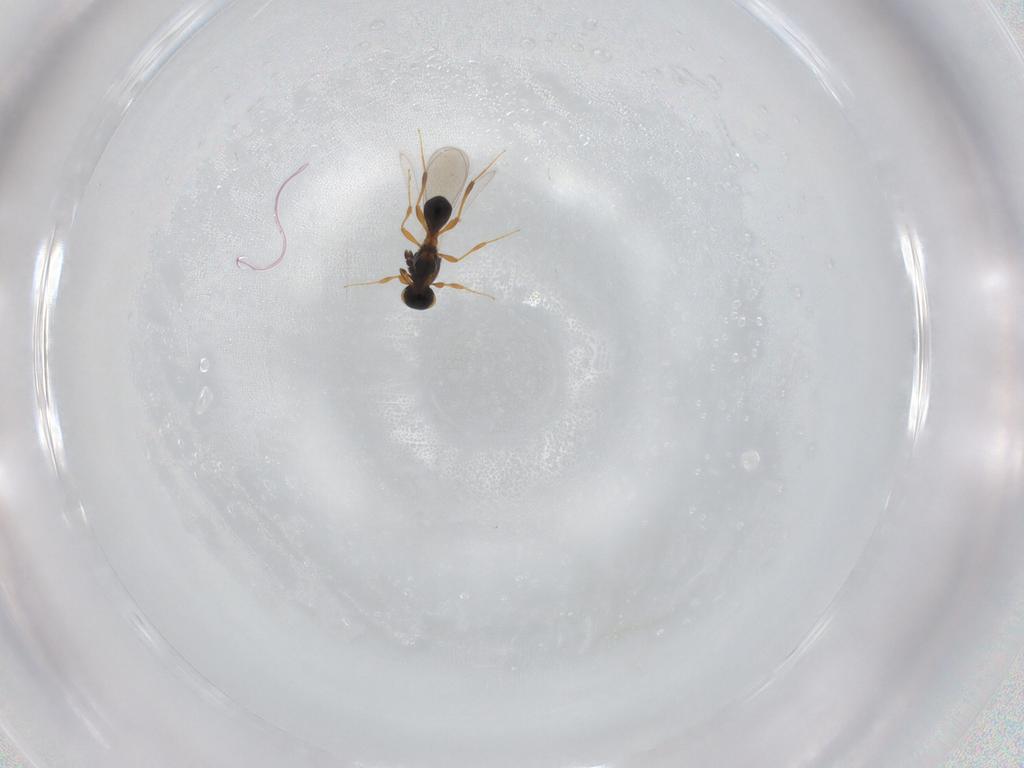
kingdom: Animalia
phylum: Arthropoda
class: Insecta
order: Hymenoptera
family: Platygastridae
